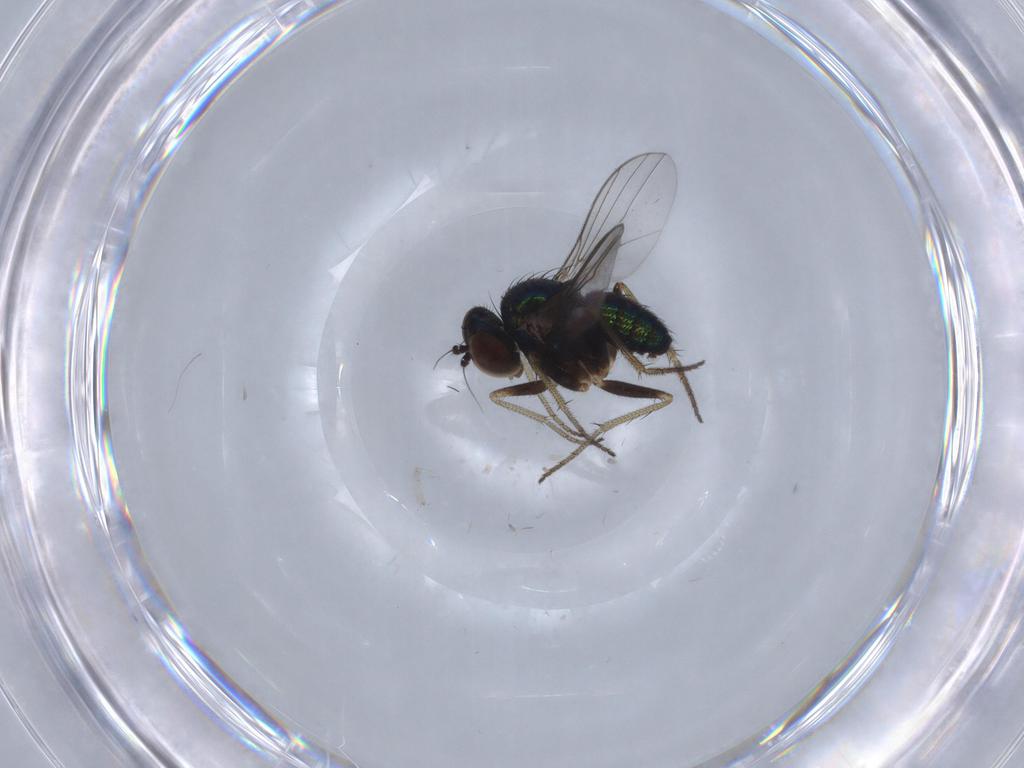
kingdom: Animalia
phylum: Arthropoda
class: Insecta
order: Diptera
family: Dolichopodidae
